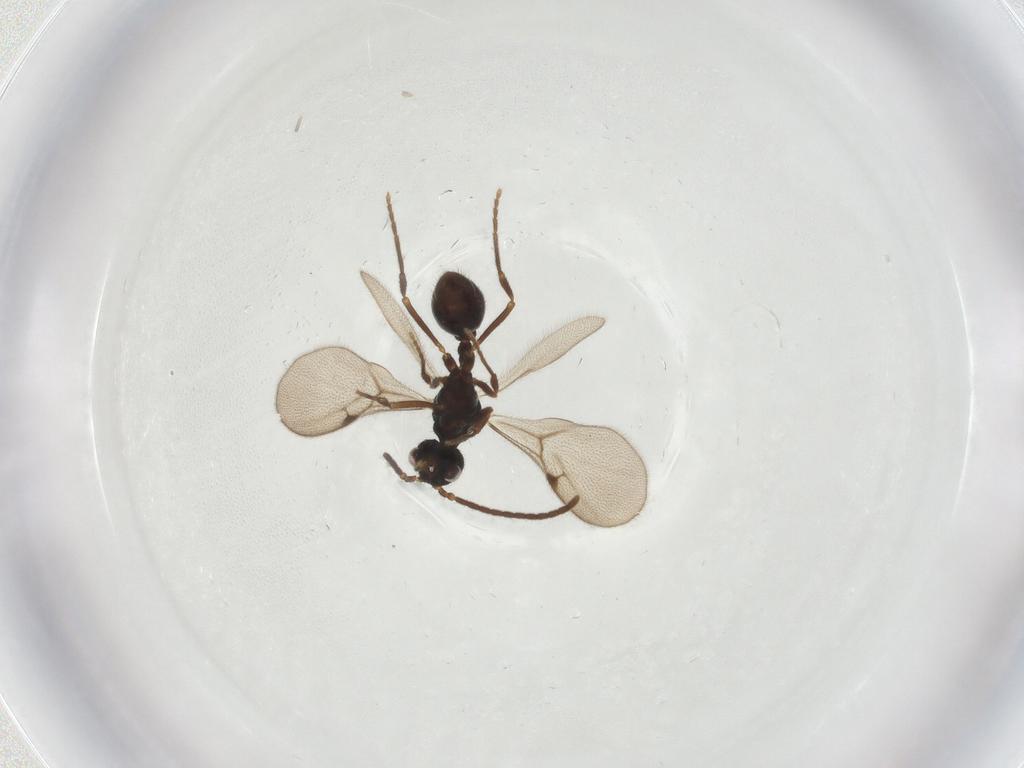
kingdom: Animalia
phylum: Arthropoda
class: Insecta
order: Hymenoptera
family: Formicidae
